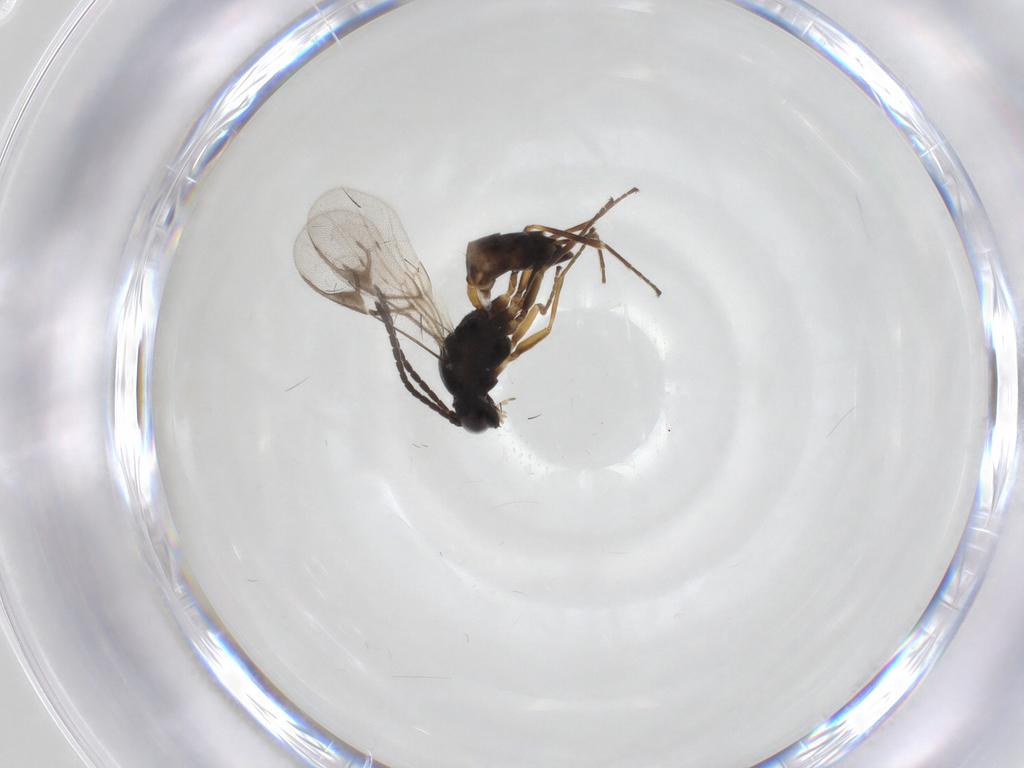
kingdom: Animalia
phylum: Arthropoda
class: Insecta
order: Hymenoptera
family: Braconidae
